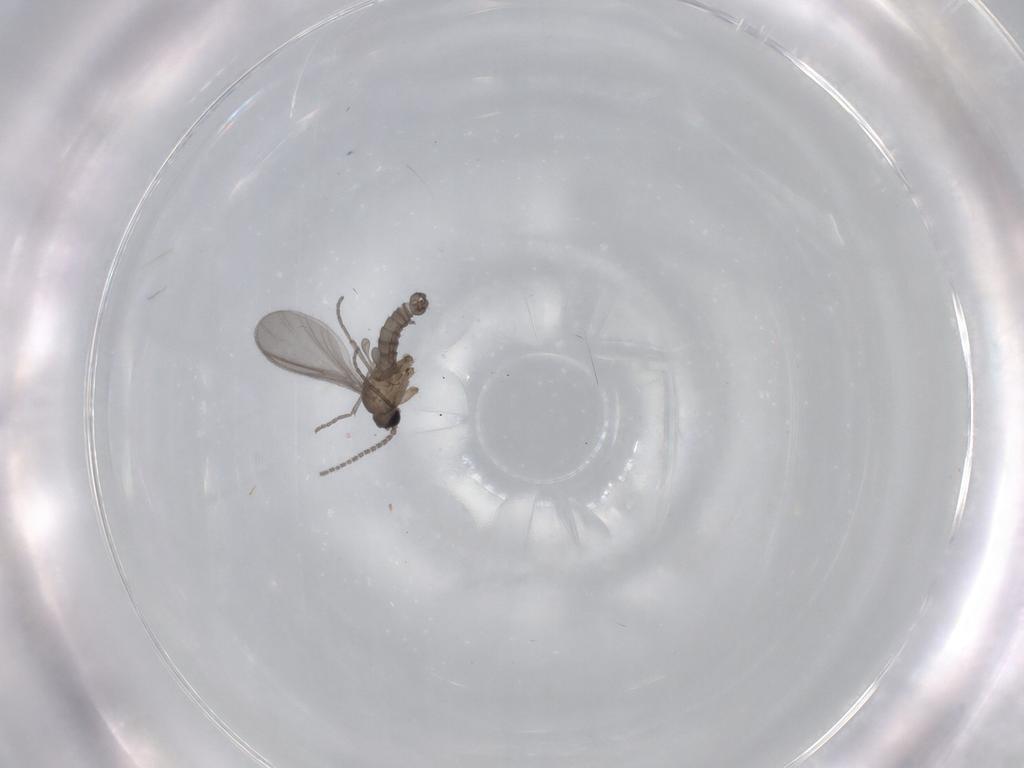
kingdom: Animalia
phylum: Arthropoda
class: Insecta
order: Diptera
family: Sciaridae
